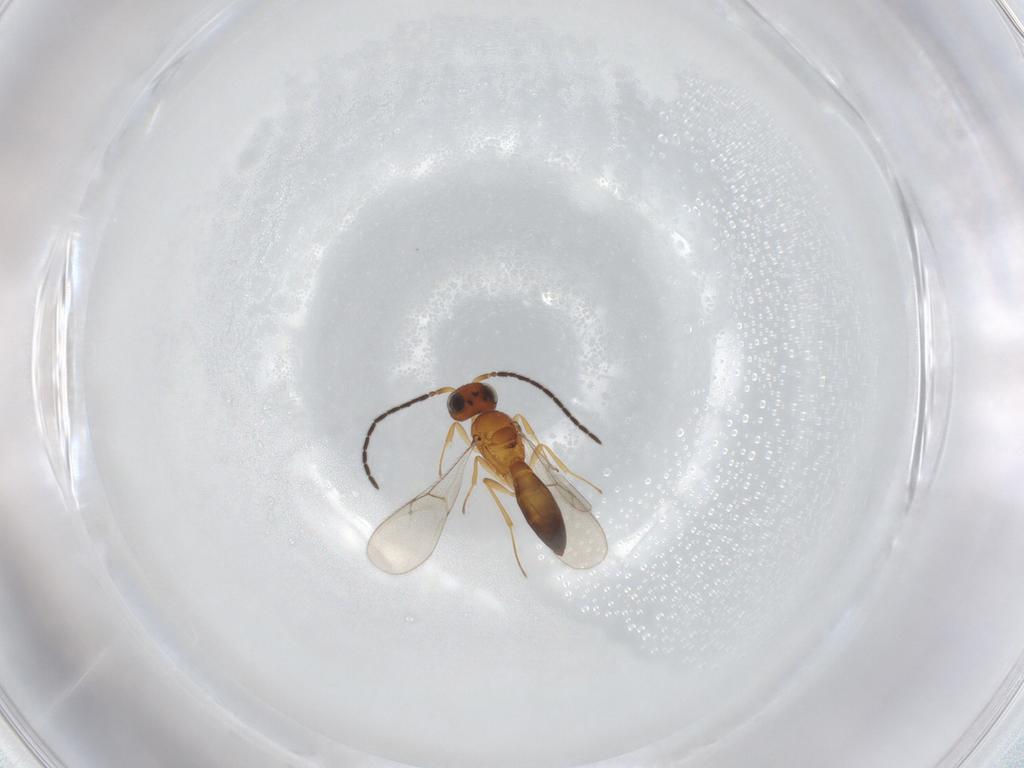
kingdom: Animalia
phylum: Arthropoda
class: Insecta
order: Hymenoptera
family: Scelionidae
